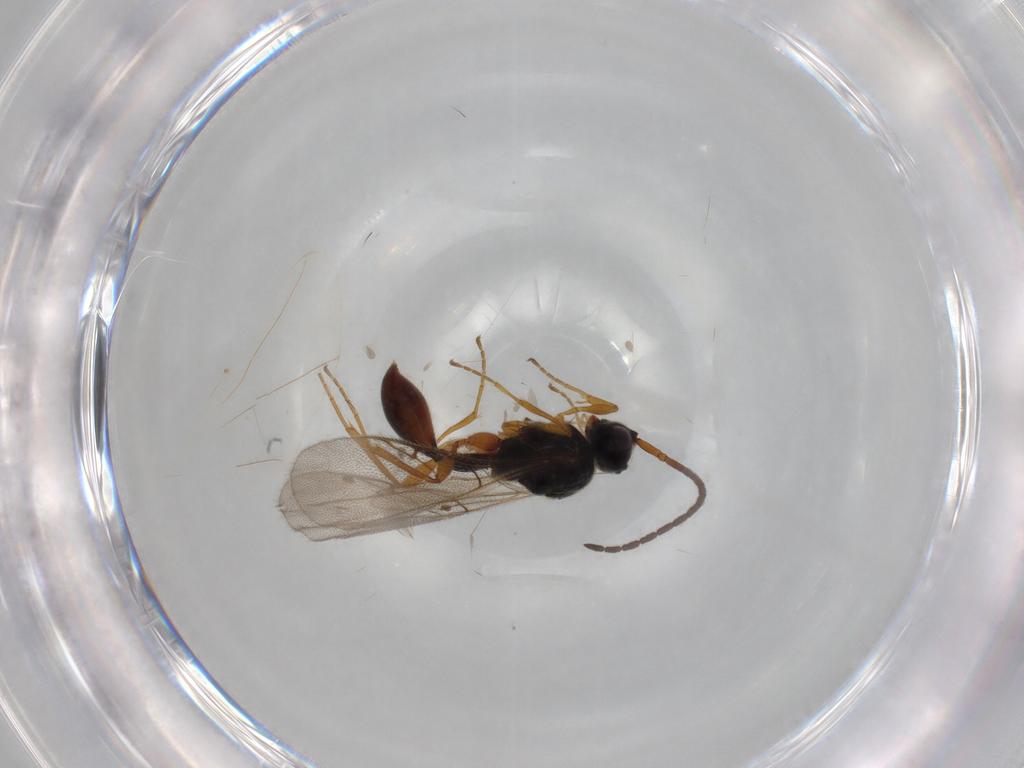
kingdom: Animalia
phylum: Arthropoda
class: Insecta
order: Hymenoptera
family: Diapriidae
